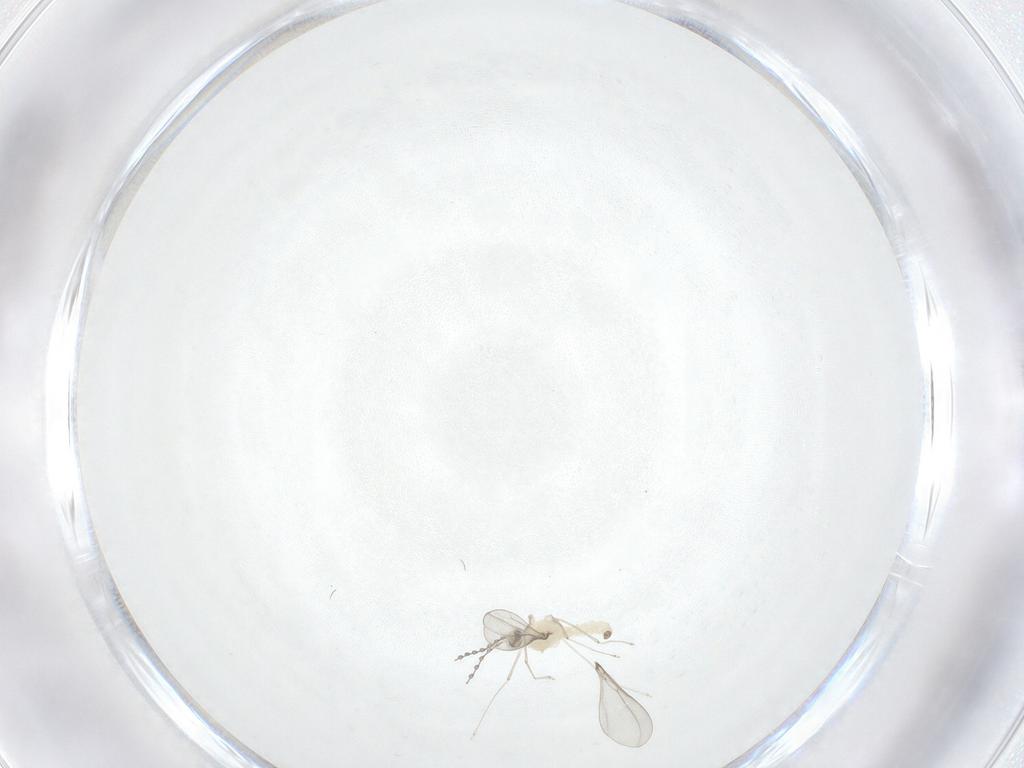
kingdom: Animalia
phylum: Arthropoda
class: Insecta
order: Diptera
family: Cecidomyiidae
